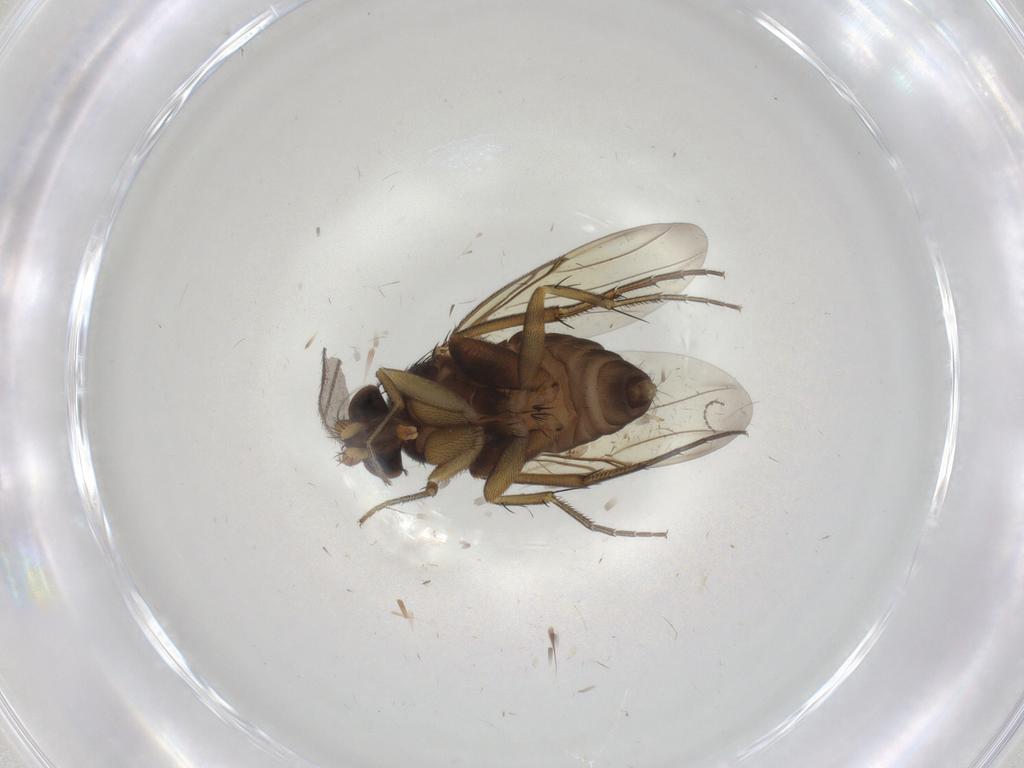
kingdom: Animalia
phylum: Arthropoda
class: Insecta
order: Diptera
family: Phoridae
